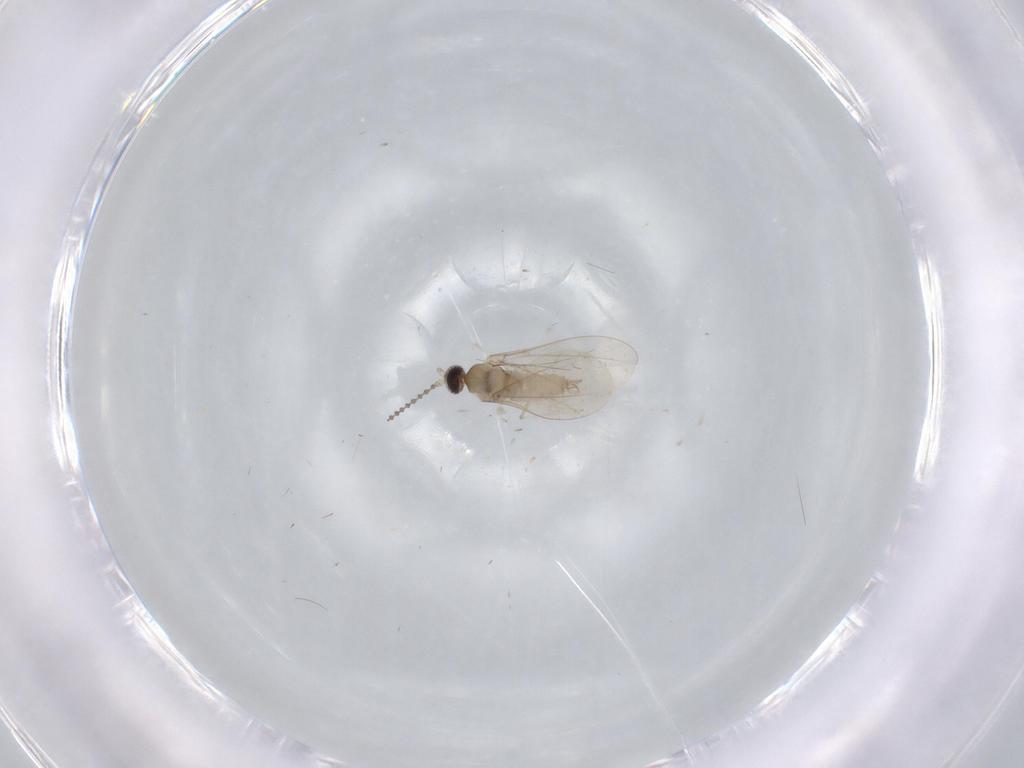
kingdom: Animalia
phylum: Arthropoda
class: Insecta
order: Diptera
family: Cecidomyiidae
